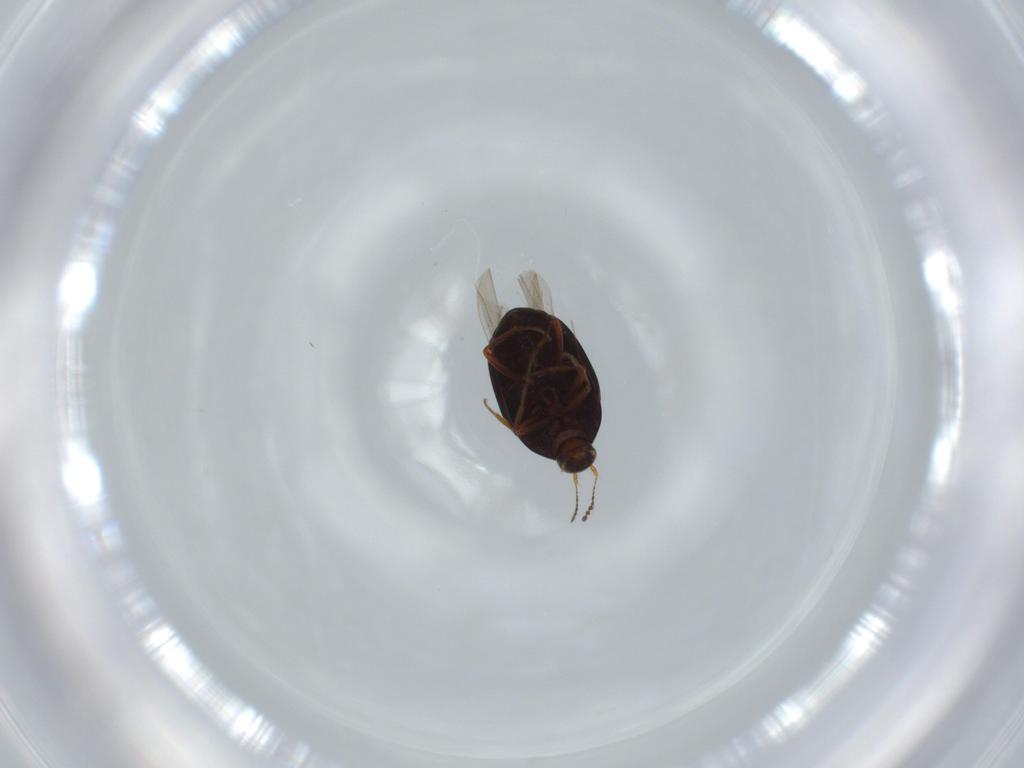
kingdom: Animalia
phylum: Arthropoda
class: Insecta
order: Coleoptera
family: Staphylinidae
